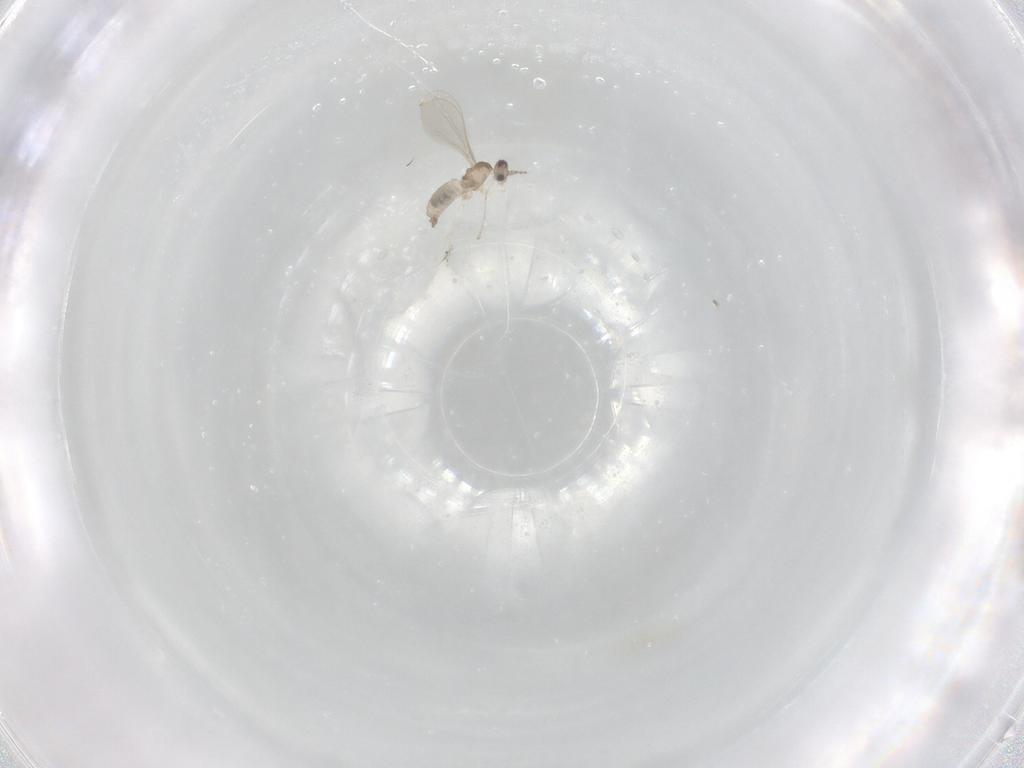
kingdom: Animalia
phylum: Arthropoda
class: Insecta
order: Diptera
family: Cecidomyiidae
